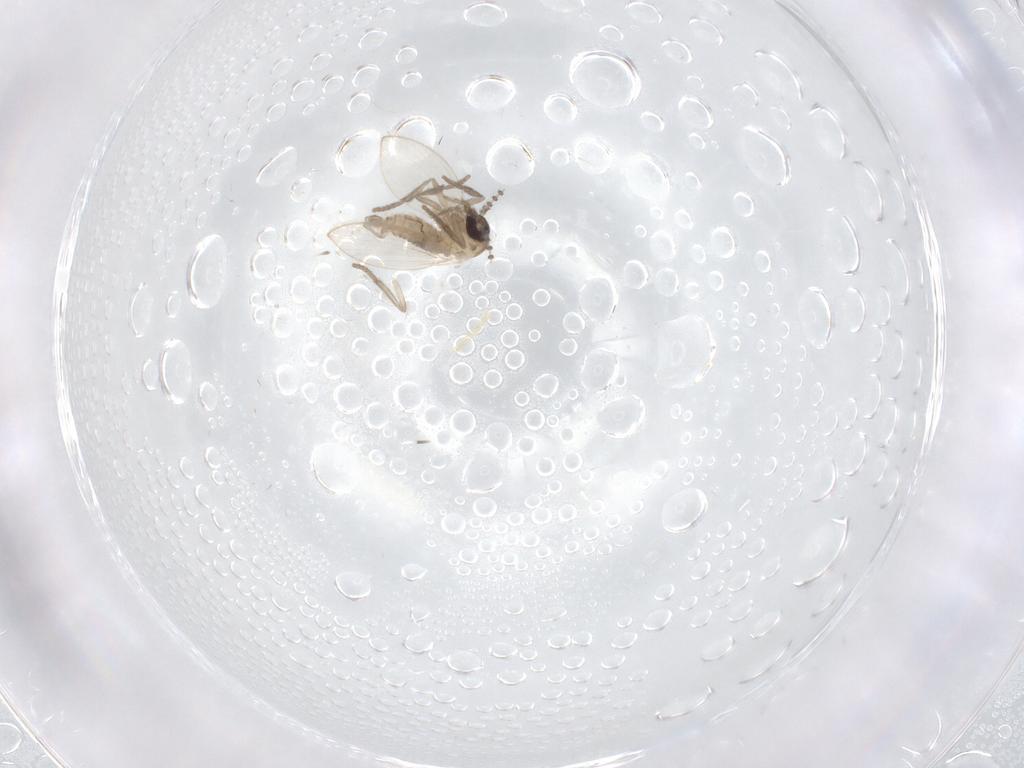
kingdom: Animalia
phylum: Arthropoda
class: Insecta
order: Diptera
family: Psychodidae
